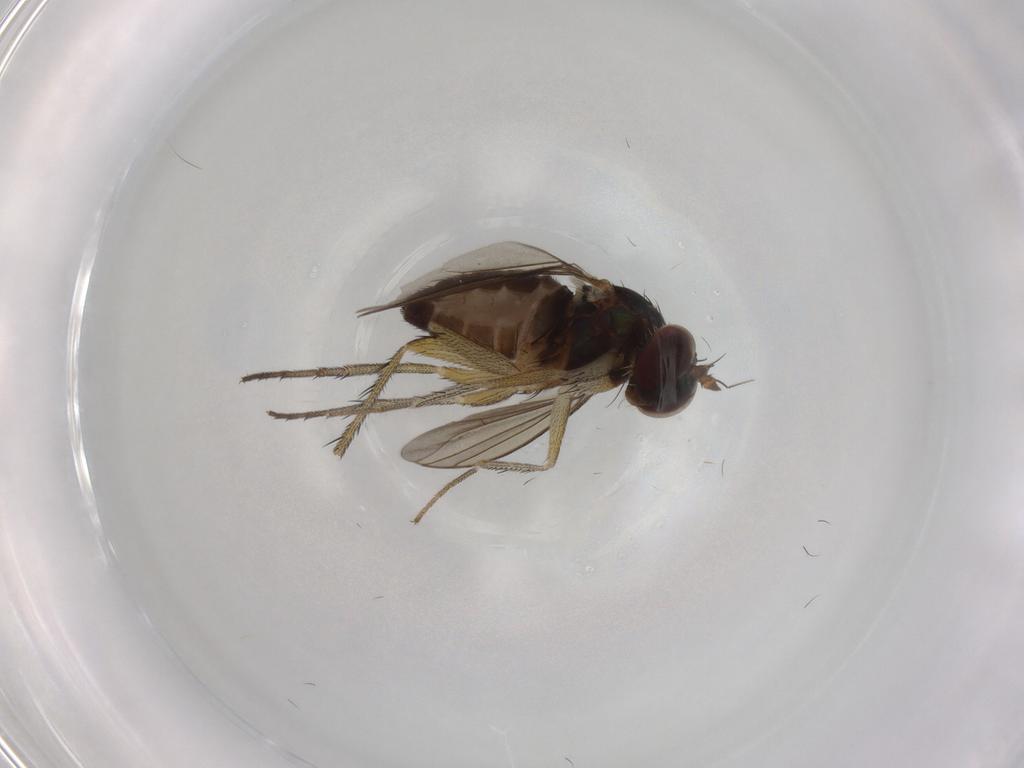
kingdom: Animalia
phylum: Arthropoda
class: Insecta
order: Diptera
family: Dolichopodidae
